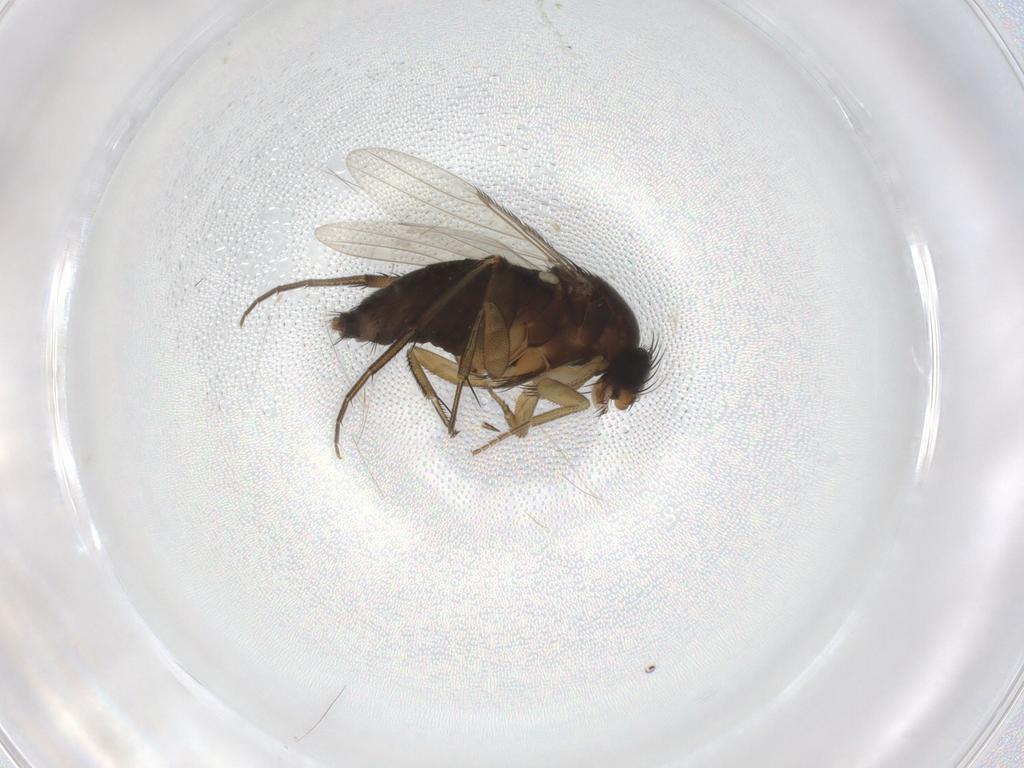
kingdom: Animalia
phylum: Arthropoda
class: Insecta
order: Diptera
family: Phoridae
